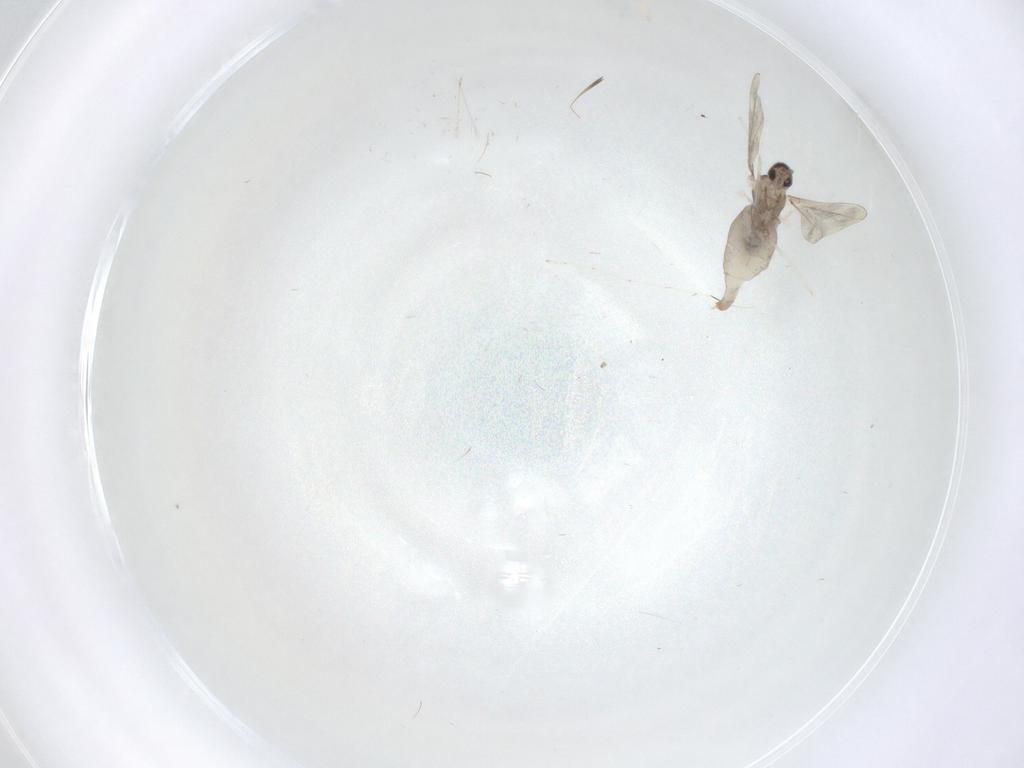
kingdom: Animalia
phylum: Arthropoda
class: Insecta
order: Diptera
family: Cecidomyiidae
